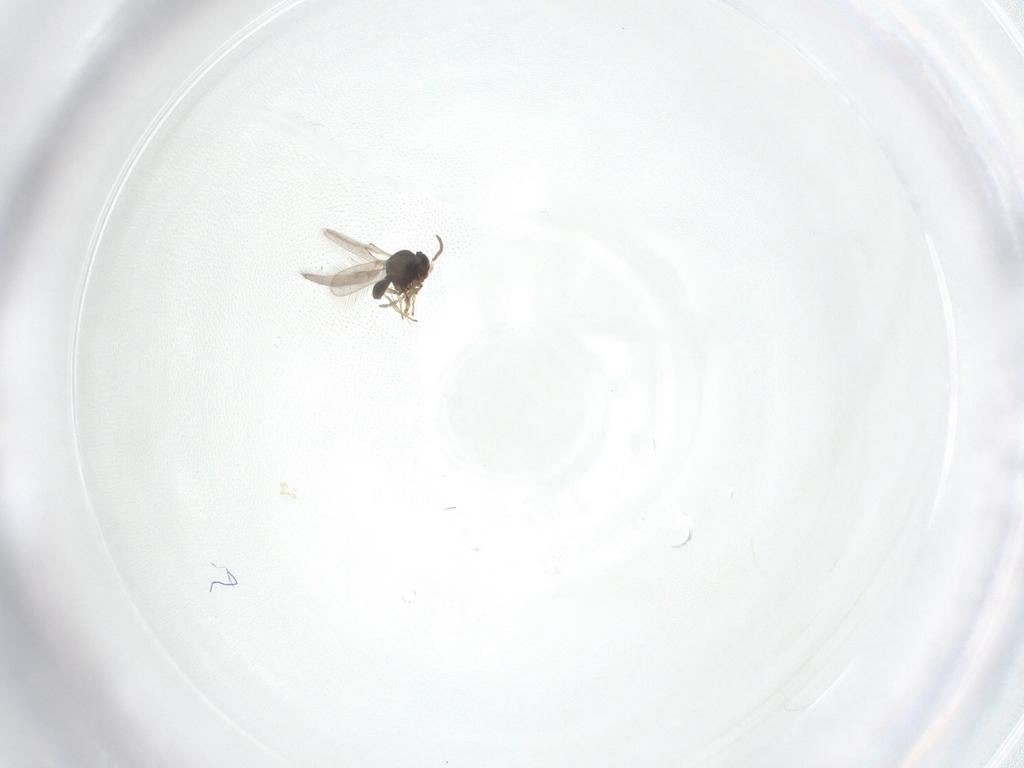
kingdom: Animalia
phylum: Arthropoda
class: Insecta
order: Hymenoptera
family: Scelionidae
